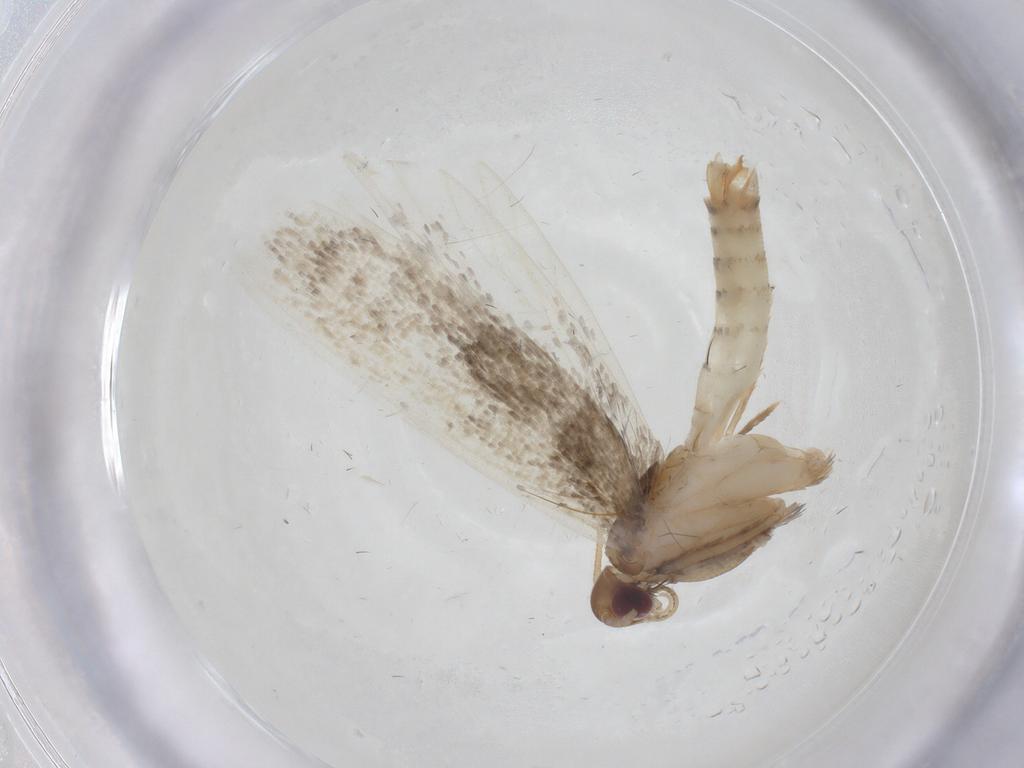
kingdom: Animalia
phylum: Arthropoda
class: Insecta
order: Lepidoptera
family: Gelechiidae
